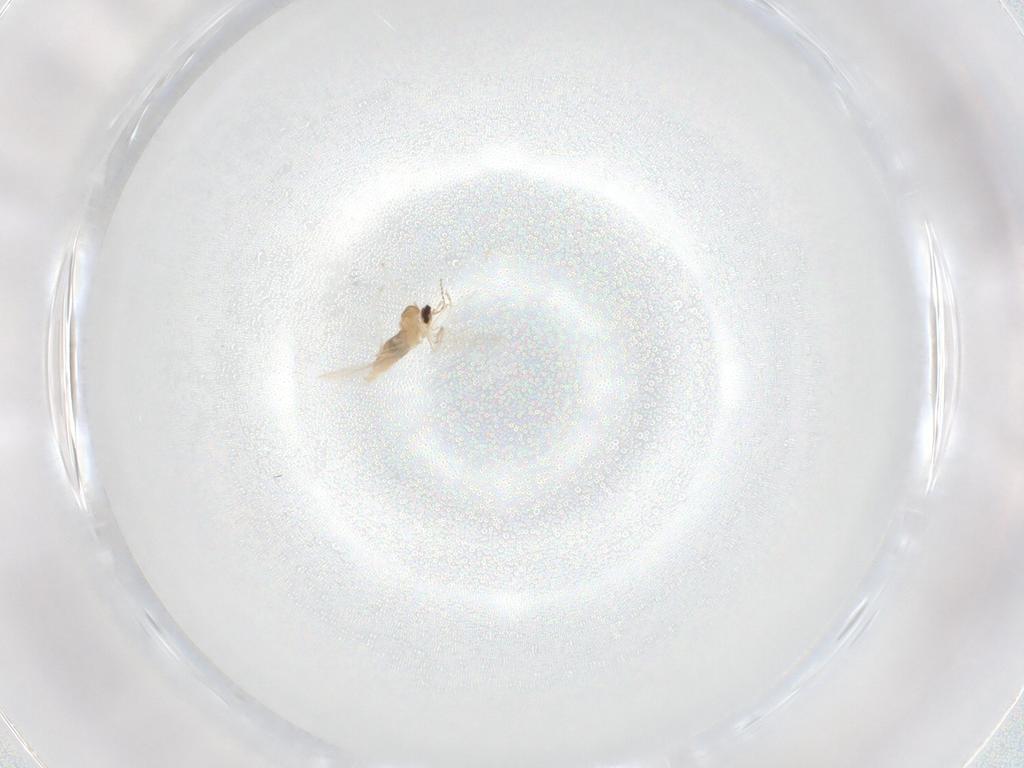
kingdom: Animalia
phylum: Arthropoda
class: Insecta
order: Diptera
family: Cecidomyiidae
